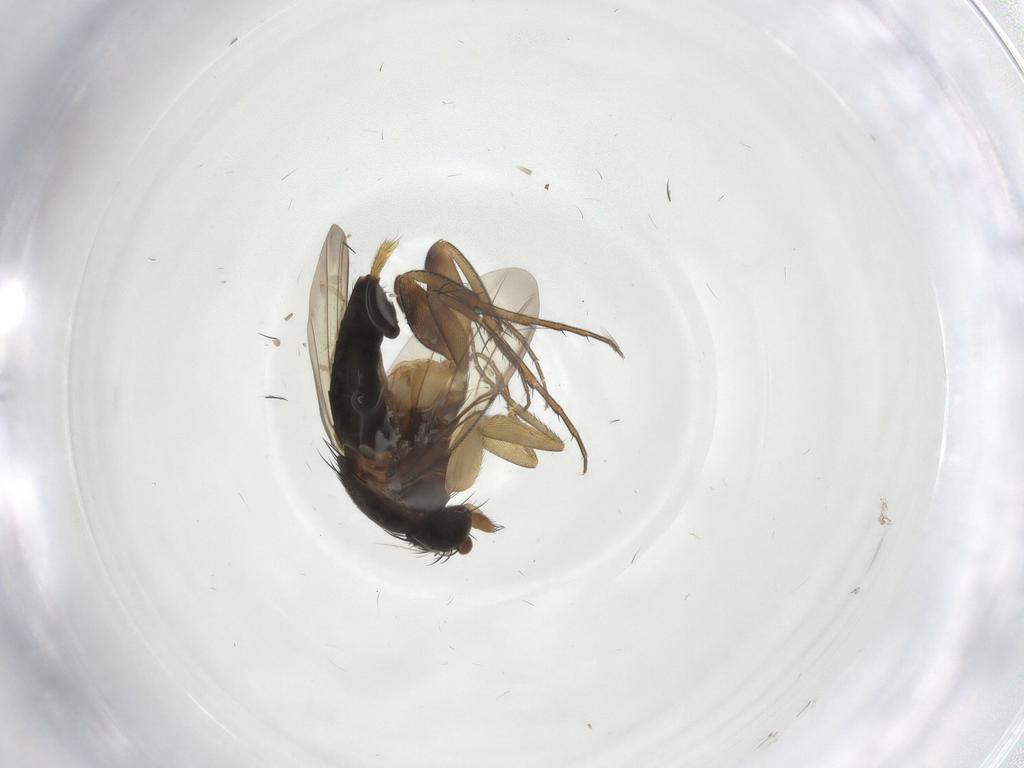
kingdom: Animalia
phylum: Arthropoda
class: Insecta
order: Diptera
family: Phoridae
